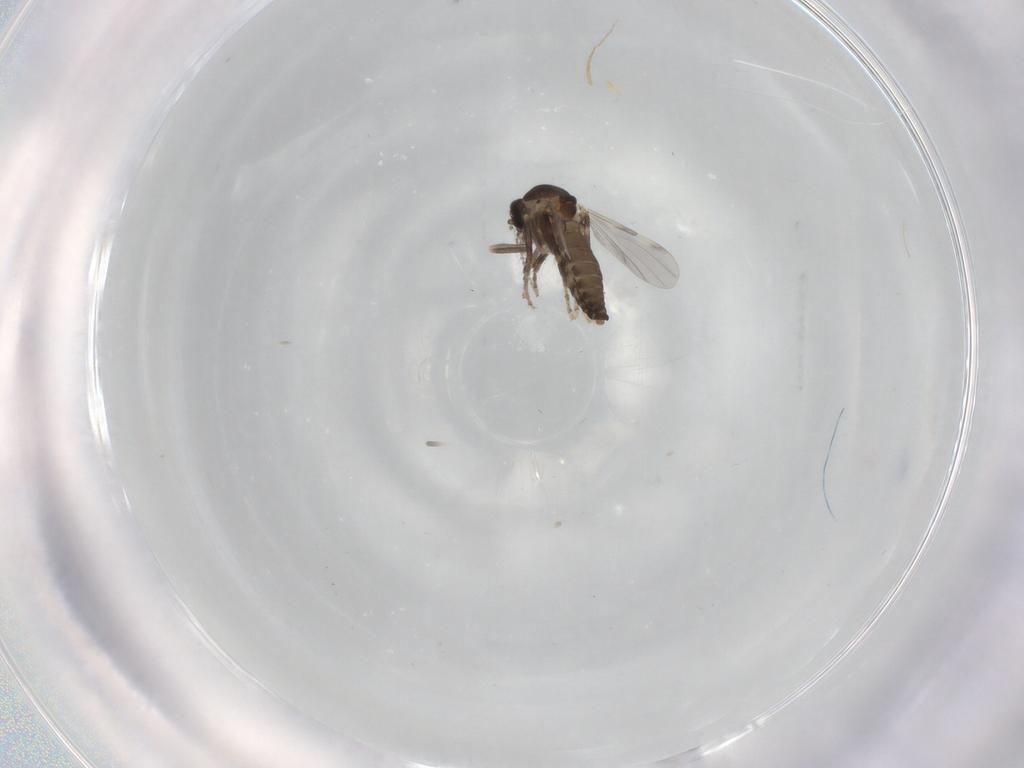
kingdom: Animalia
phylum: Arthropoda
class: Insecta
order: Diptera
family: Ceratopogonidae
